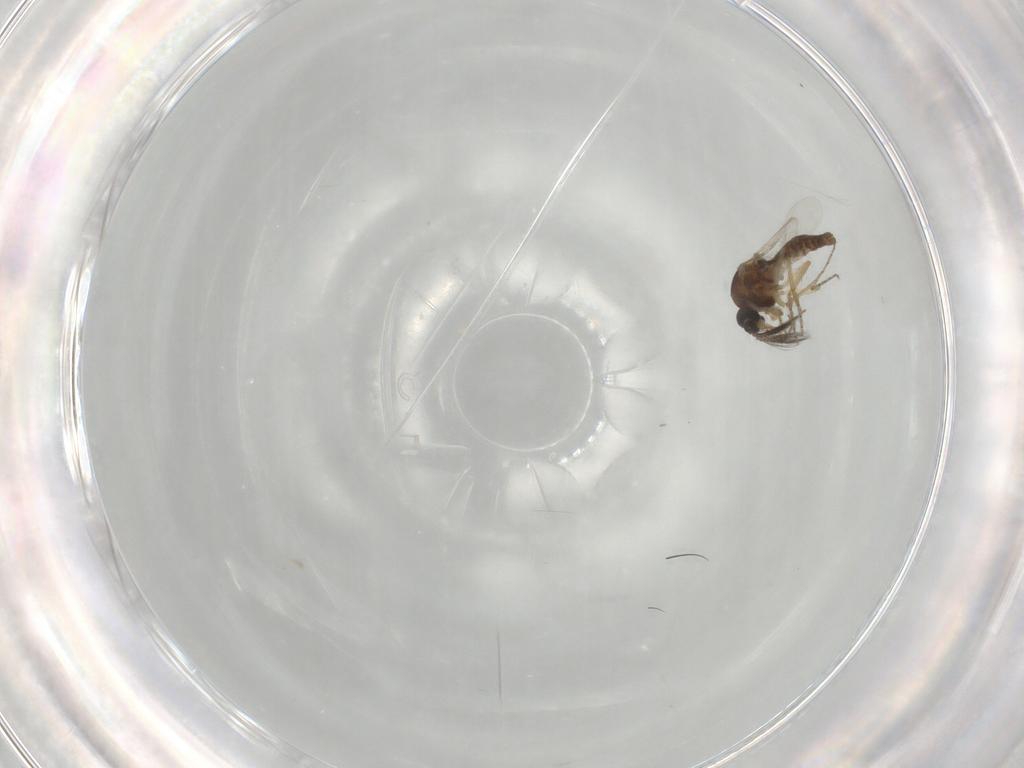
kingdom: Animalia
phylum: Arthropoda
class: Insecta
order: Diptera
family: Ceratopogonidae
